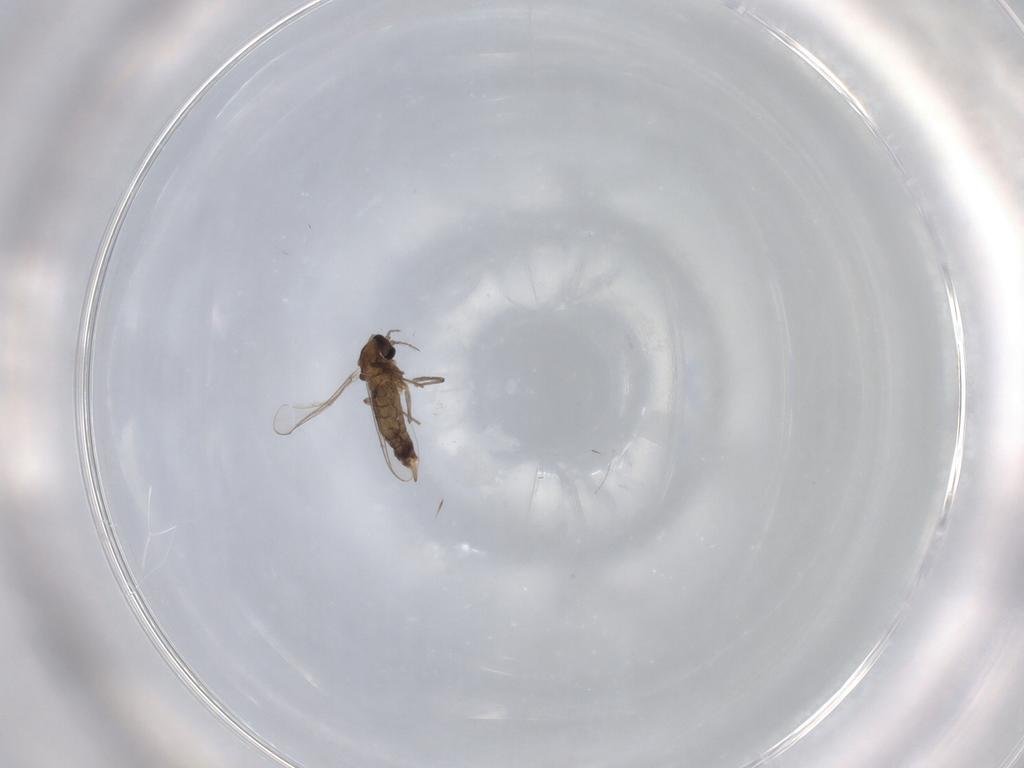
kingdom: Animalia
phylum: Arthropoda
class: Insecta
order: Diptera
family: Chironomidae
